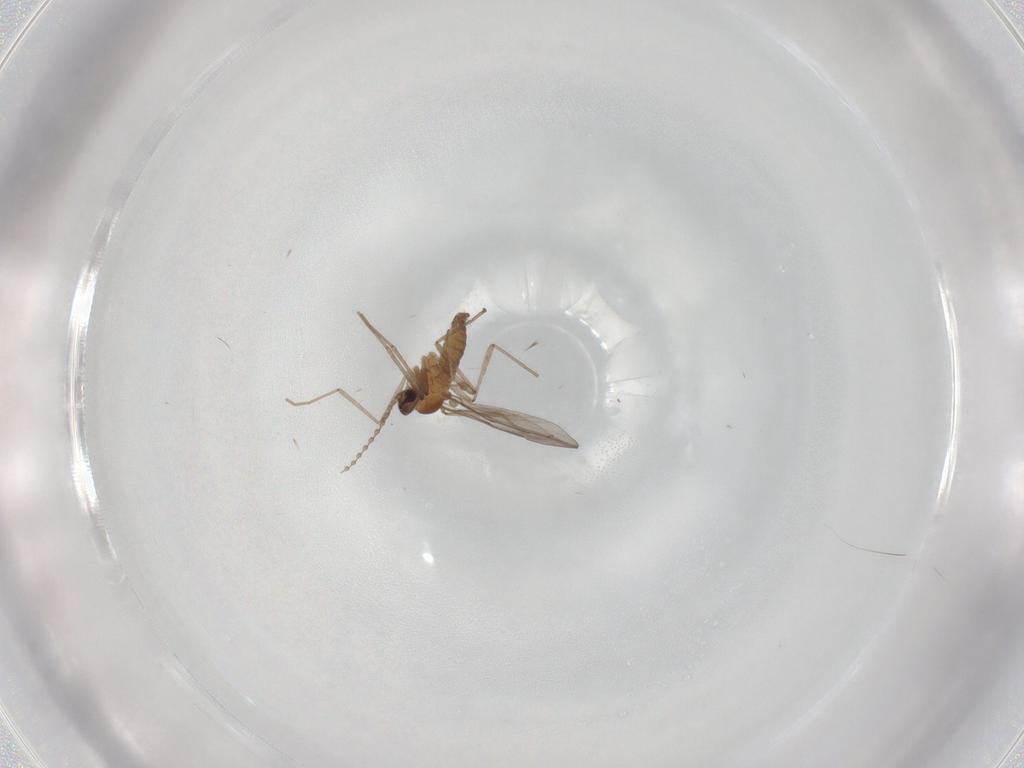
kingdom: Animalia
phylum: Arthropoda
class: Insecta
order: Diptera
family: Cecidomyiidae
